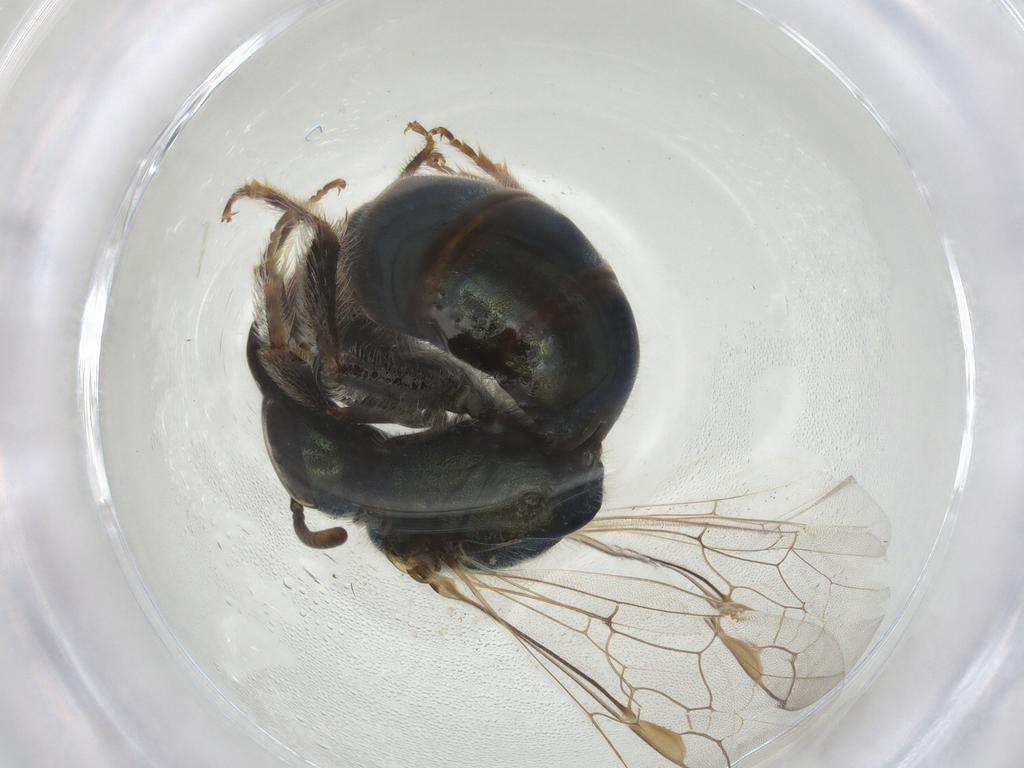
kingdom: Animalia
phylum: Arthropoda
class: Insecta
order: Hymenoptera
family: Halictidae
